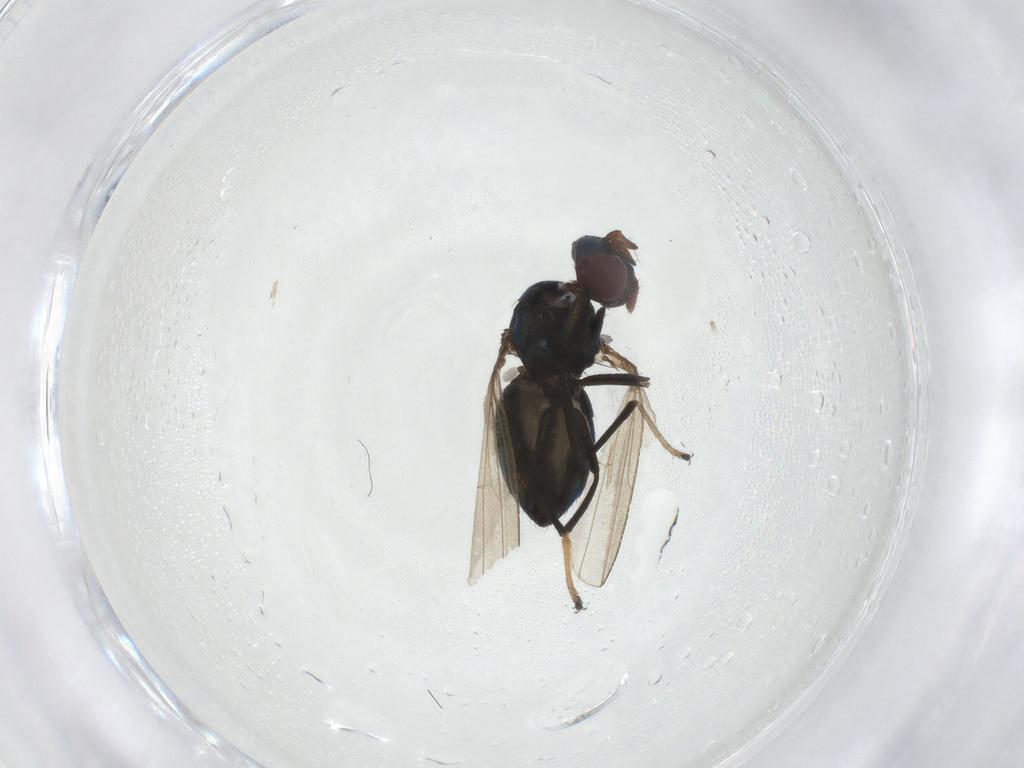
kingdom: Animalia
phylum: Arthropoda
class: Insecta
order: Diptera
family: Ephydridae
